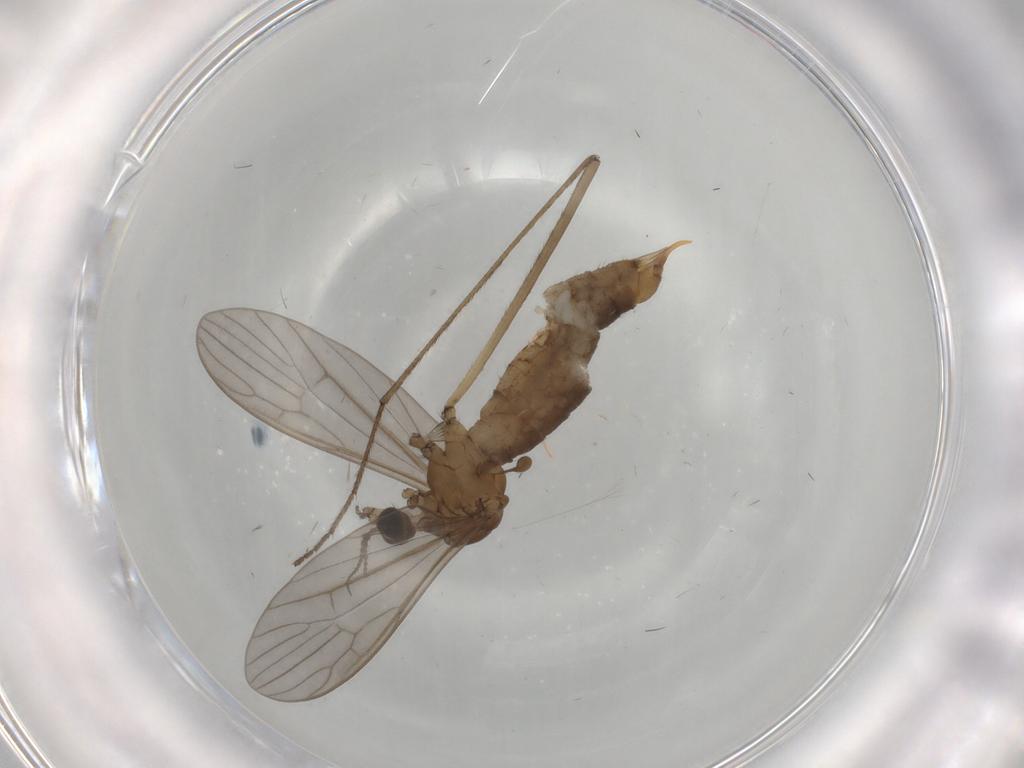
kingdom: Animalia
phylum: Arthropoda
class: Insecta
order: Diptera
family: Limoniidae
